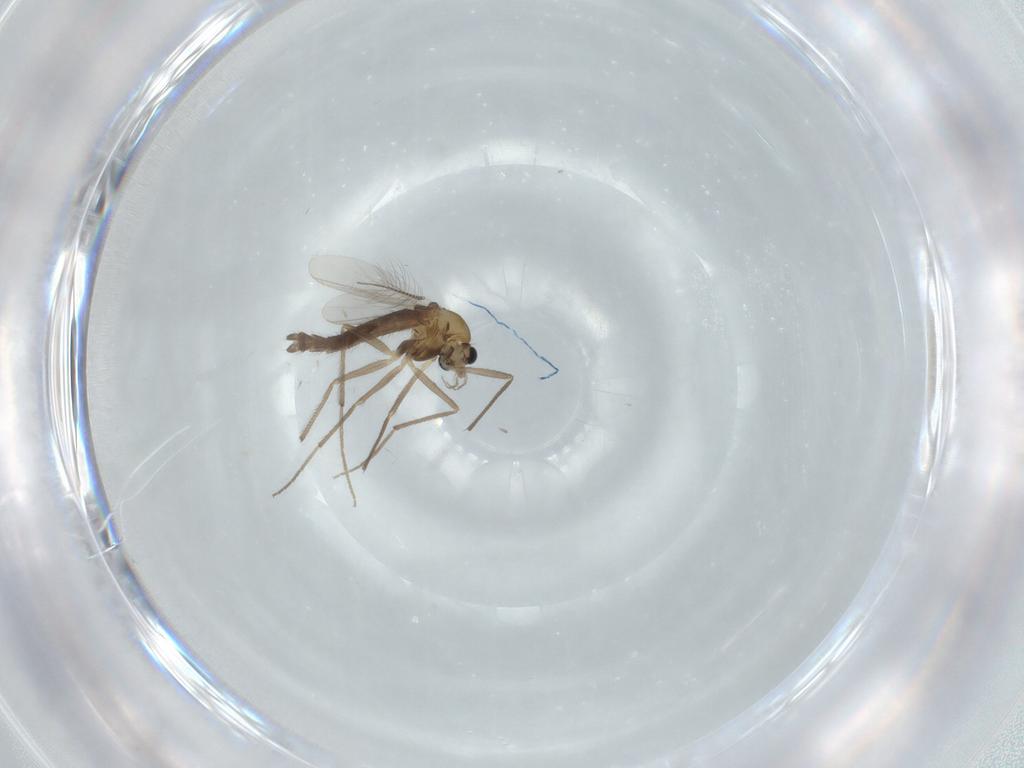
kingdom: Animalia
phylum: Arthropoda
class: Insecta
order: Diptera
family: Chironomidae
